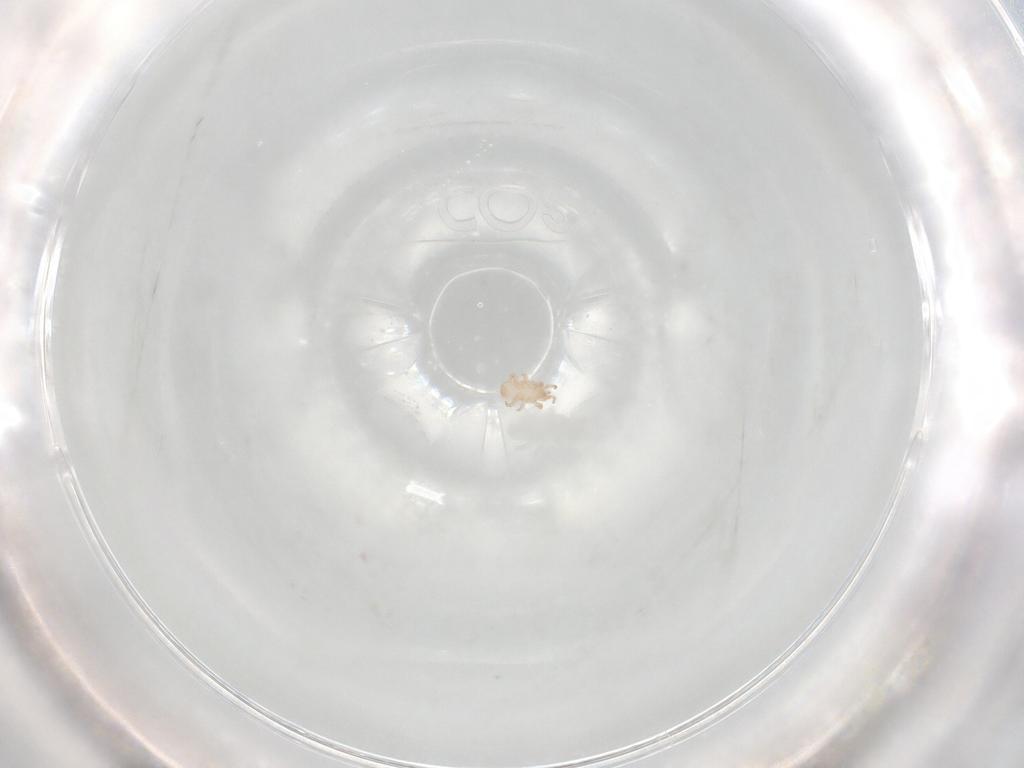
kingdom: Animalia
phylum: Arthropoda
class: Arachnida
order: Mesostigmata
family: Digamasellidae
